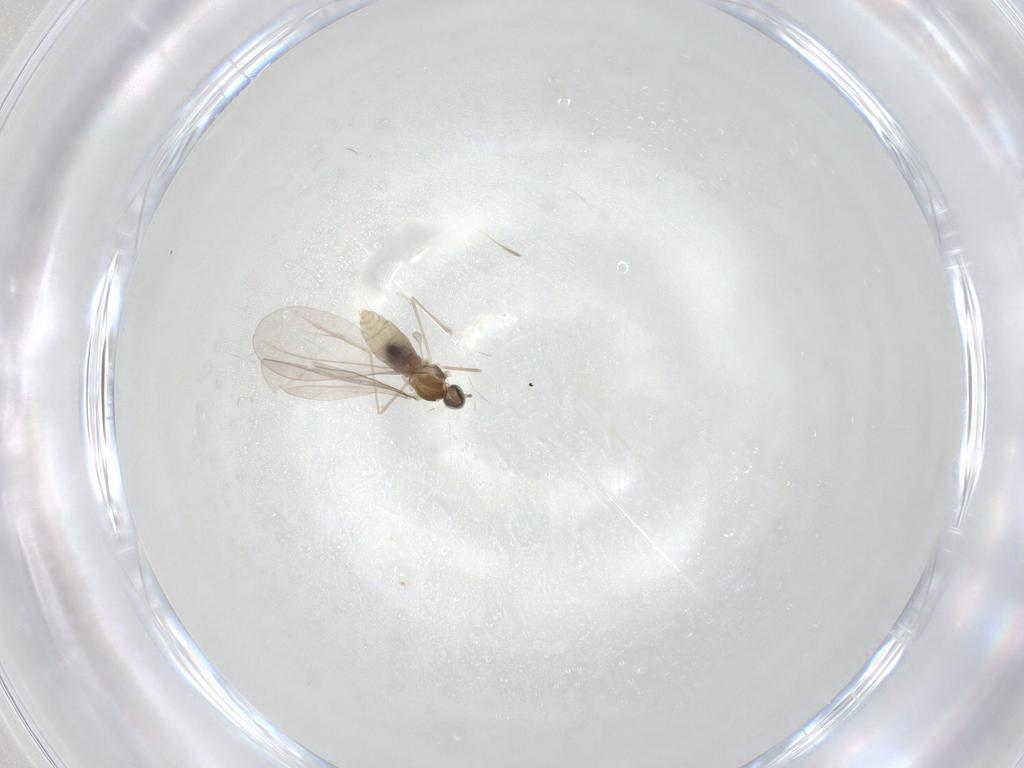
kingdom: Animalia
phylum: Arthropoda
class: Insecta
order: Diptera
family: Cecidomyiidae
